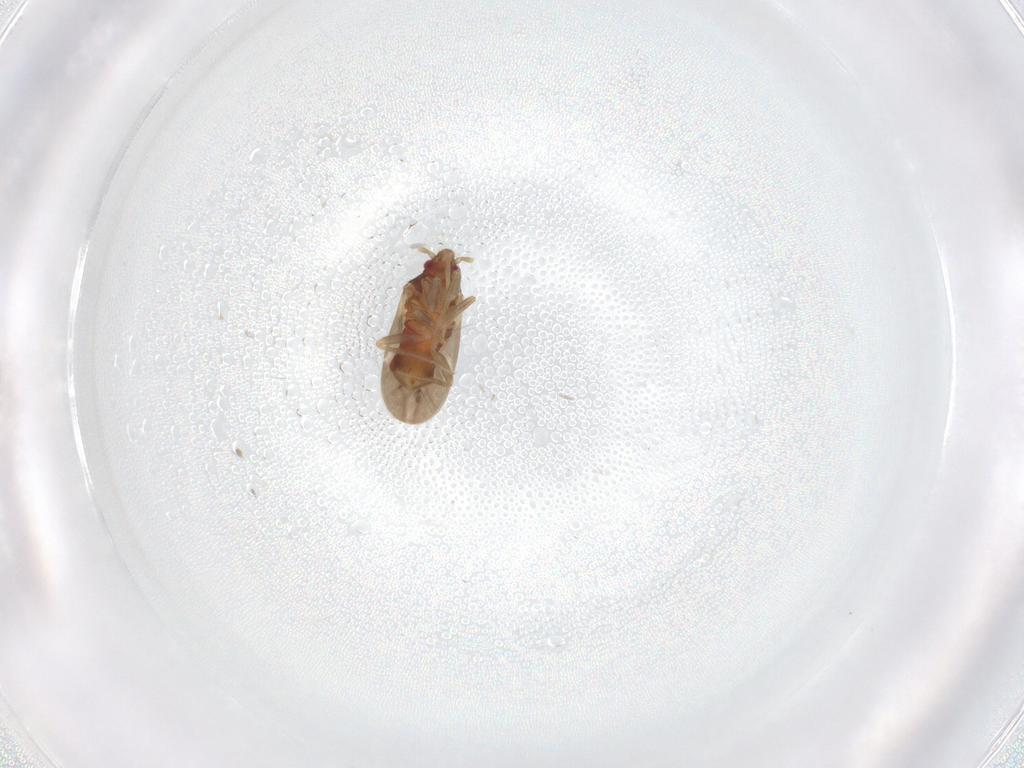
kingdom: Animalia
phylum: Arthropoda
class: Insecta
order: Hemiptera
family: Ceratocombidae
